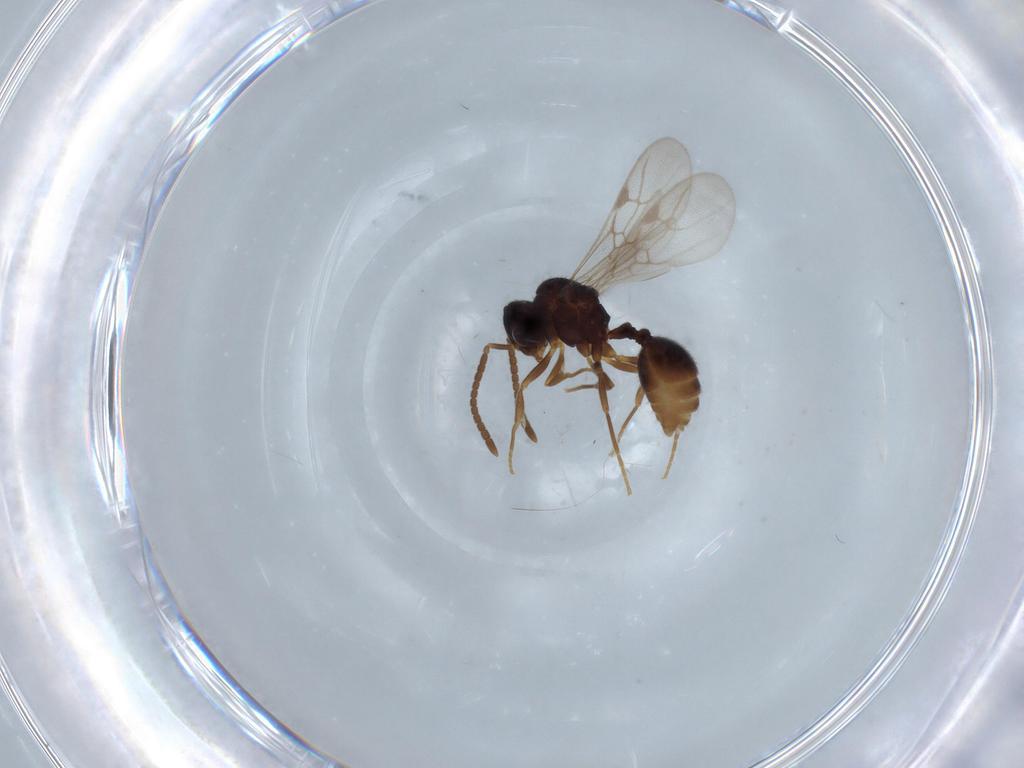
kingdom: Animalia
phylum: Arthropoda
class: Insecta
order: Hymenoptera
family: Formicidae
